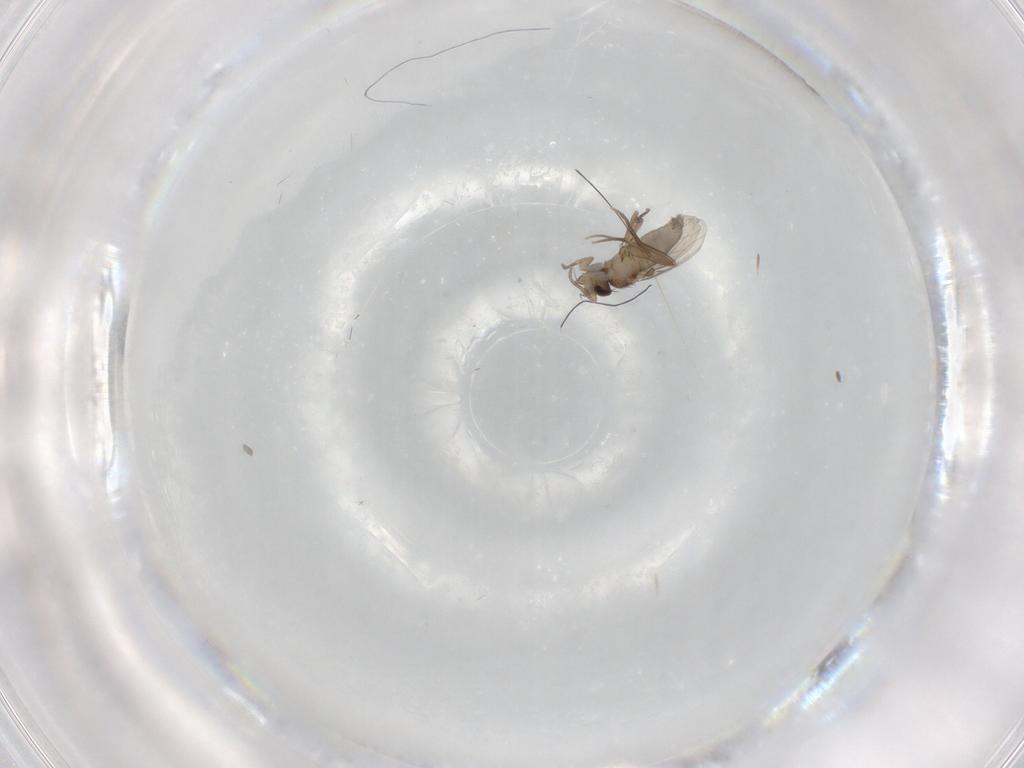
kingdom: Animalia
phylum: Arthropoda
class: Insecta
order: Diptera
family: Phoridae
